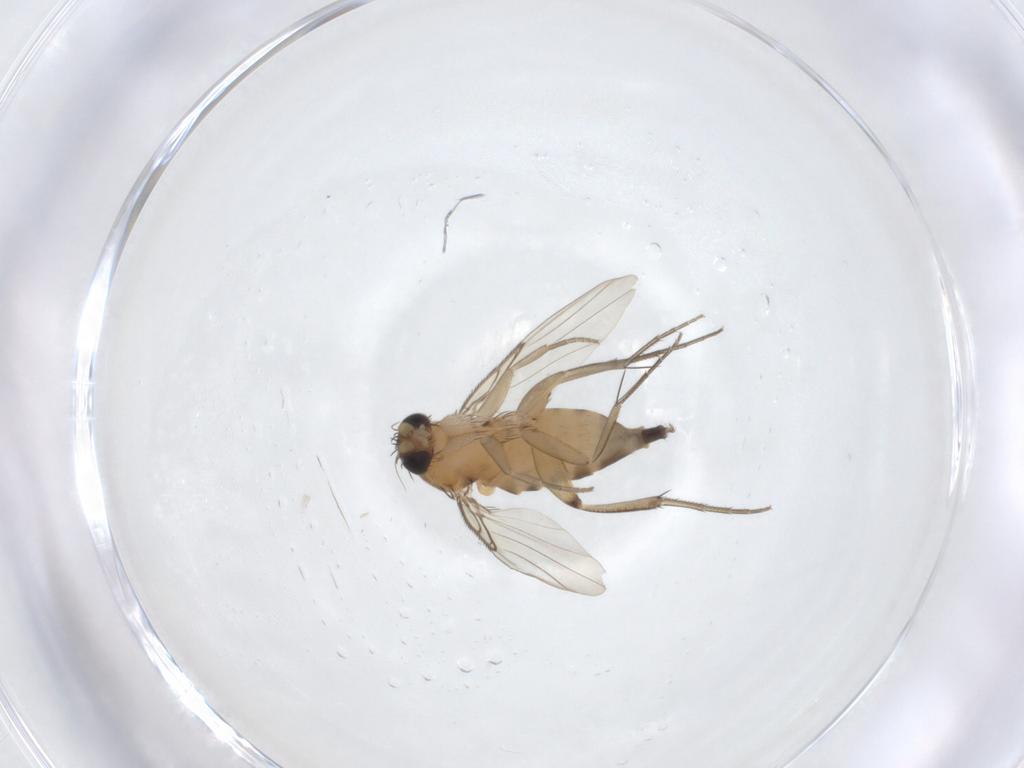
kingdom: Animalia
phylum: Arthropoda
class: Insecta
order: Diptera
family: Phoridae
